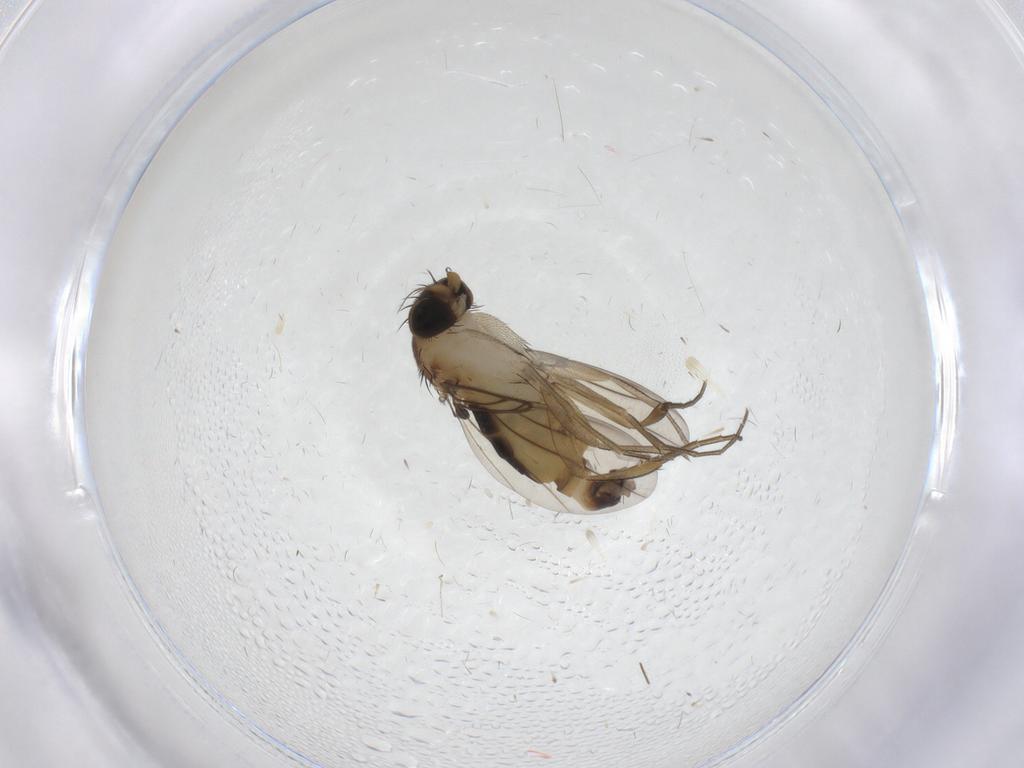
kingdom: Animalia
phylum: Arthropoda
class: Insecta
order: Diptera
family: Phoridae
